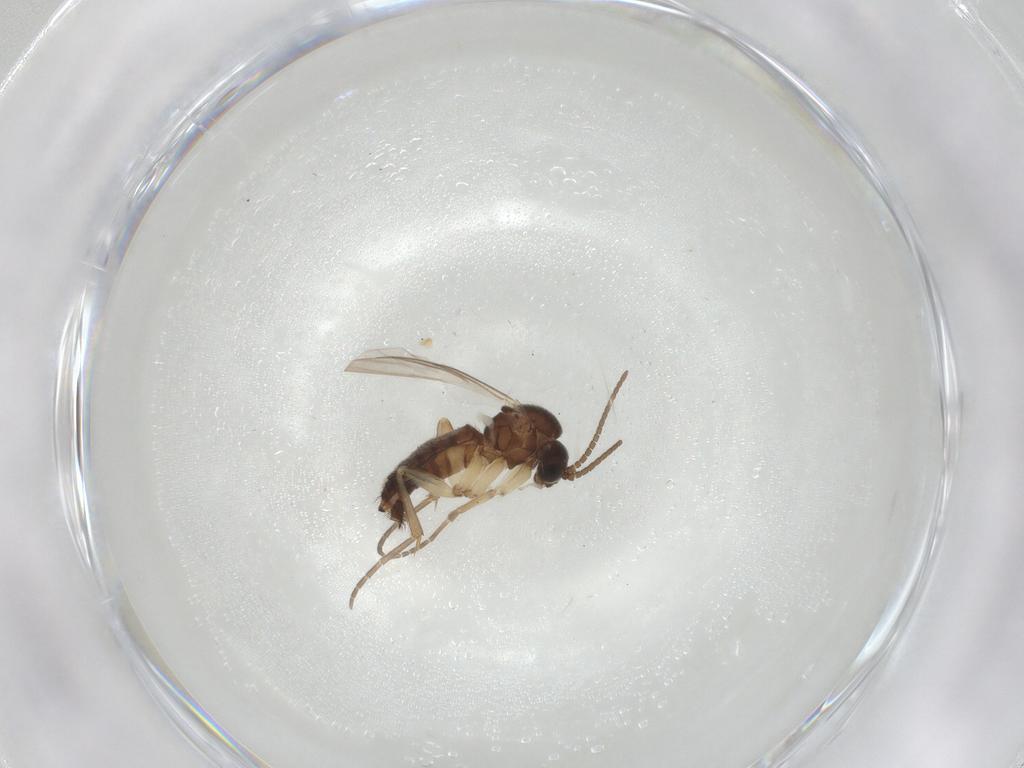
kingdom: Animalia
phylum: Arthropoda
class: Insecta
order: Diptera
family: Mycetophilidae
